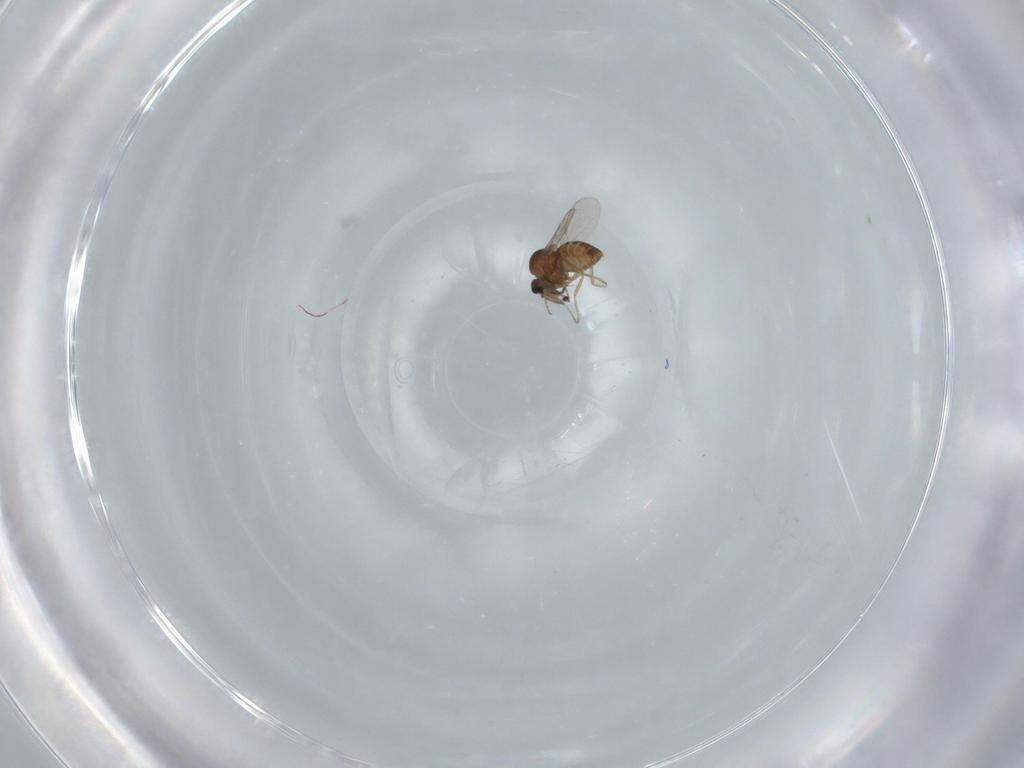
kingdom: Animalia
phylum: Arthropoda
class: Insecta
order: Diptera
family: Ceratopogonidae
